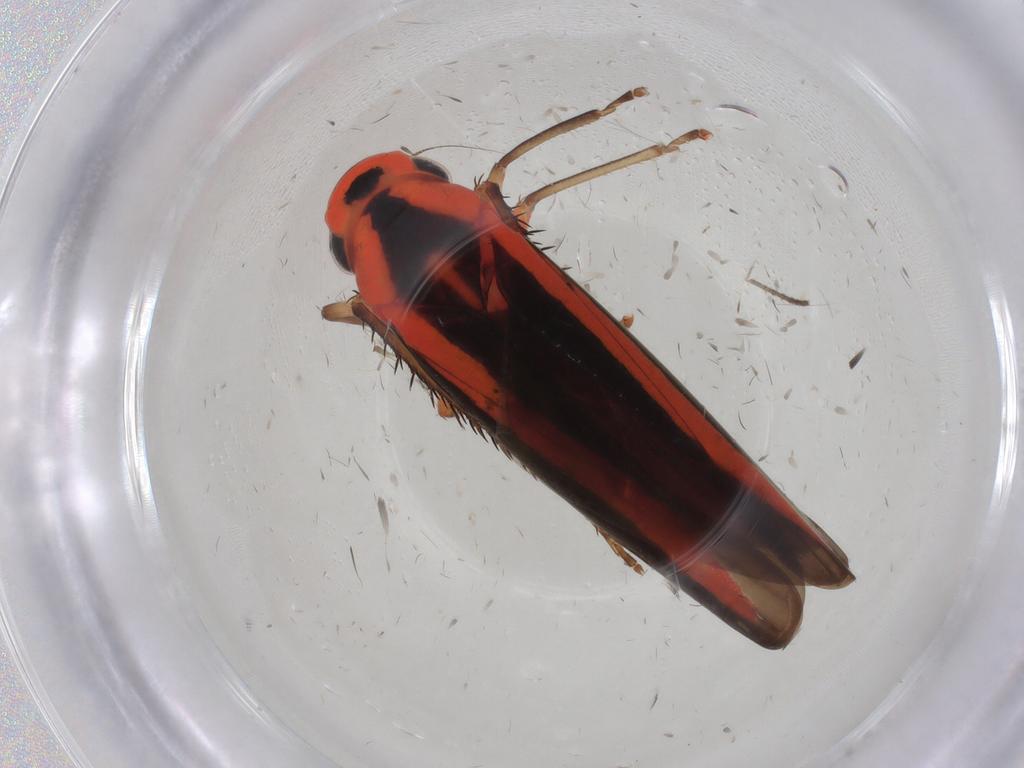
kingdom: Animalia
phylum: Arthropoda
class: Insecta
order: Hemiptera
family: Cicadellidae
